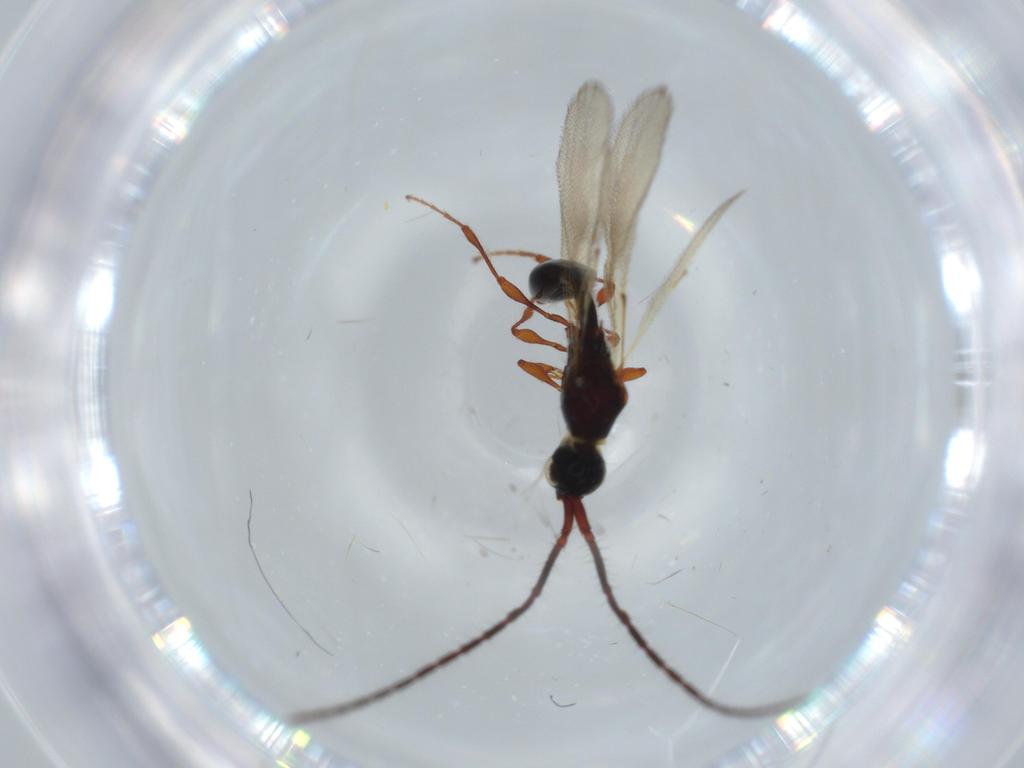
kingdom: Animalia
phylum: Arthropoda
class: Insecta
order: Hymenoptera
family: Diapriidae
